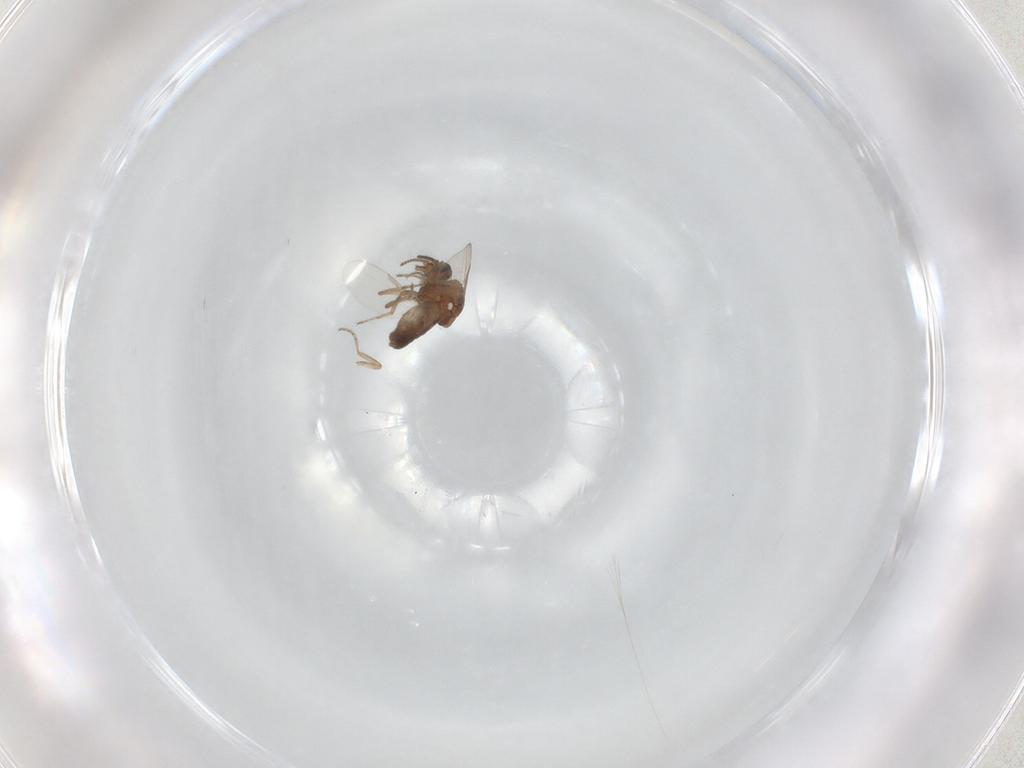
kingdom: Animalia
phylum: Arthropoda
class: Insecta
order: Diptera
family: Ceratopogonidae
